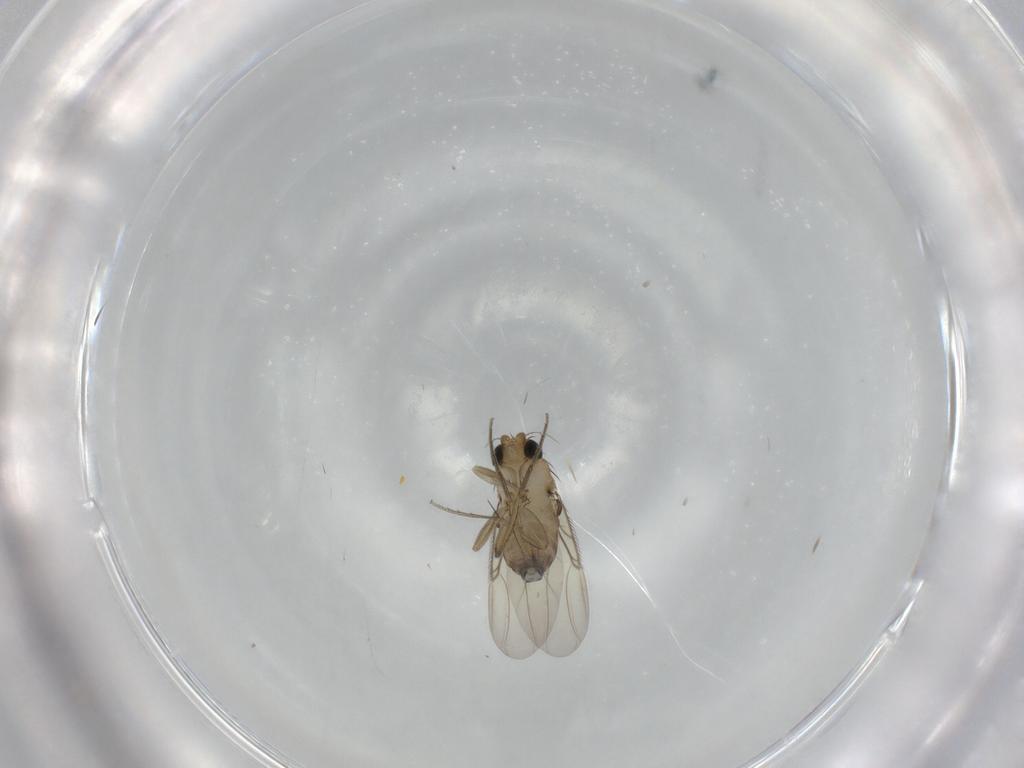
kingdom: Animalia
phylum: Arthropoda
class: Insecta
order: Diptera
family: Phoridae
